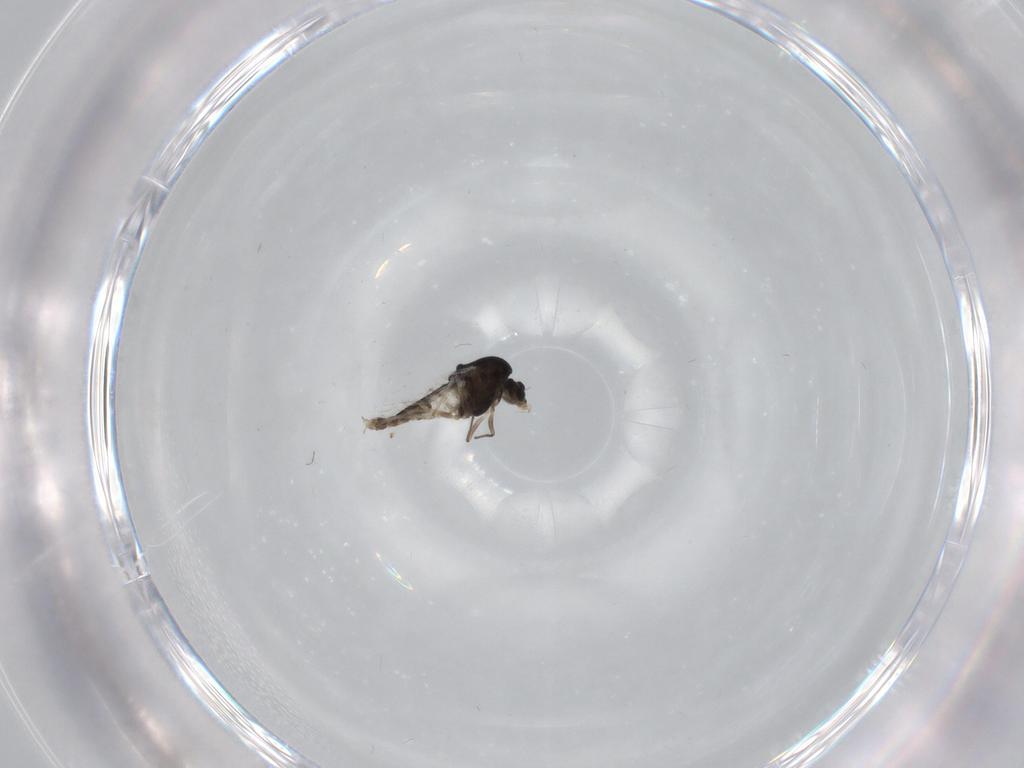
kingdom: Animalia
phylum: Arthropoda
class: Insecta
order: Diptera
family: Chironomidae
